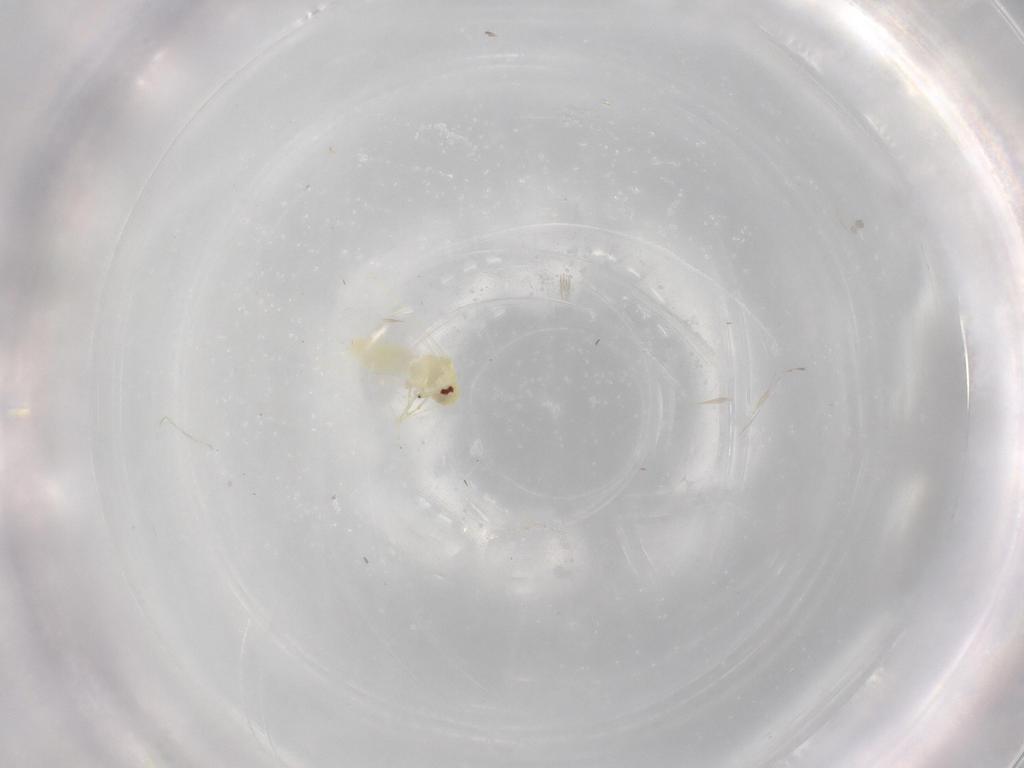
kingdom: Animalia
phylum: Arthropoda
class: Insecta
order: Hemiptera
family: Aleyrodidae
